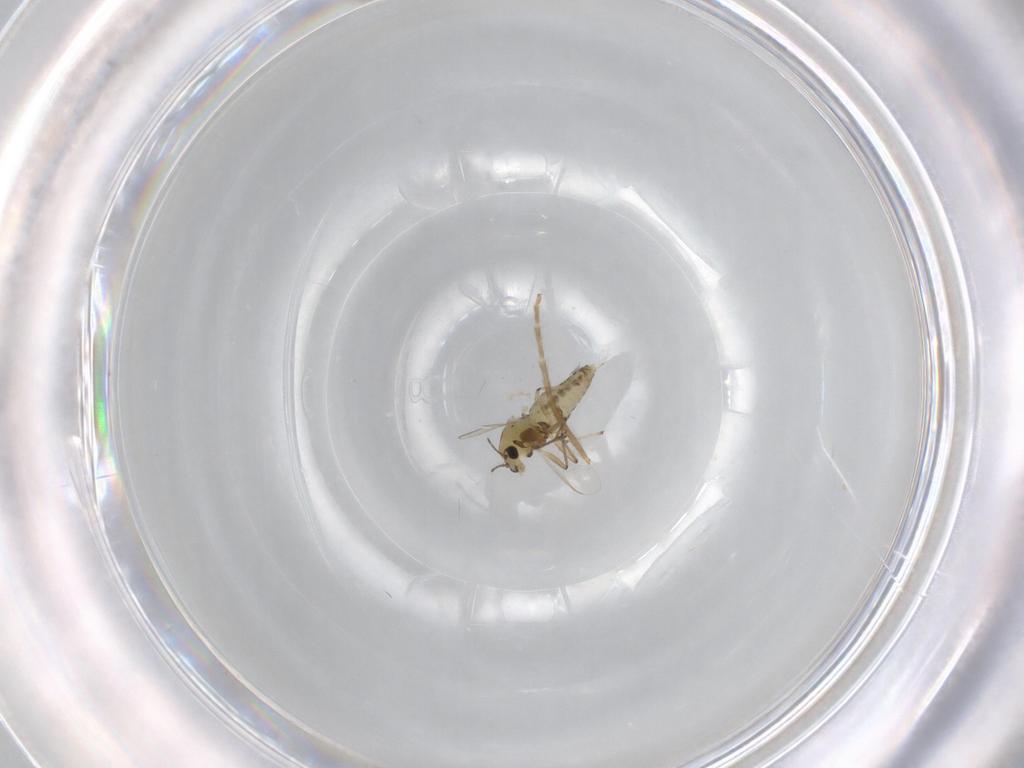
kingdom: Animalia
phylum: Arthropoda
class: Insecta
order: Diptera
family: Chironomidae
